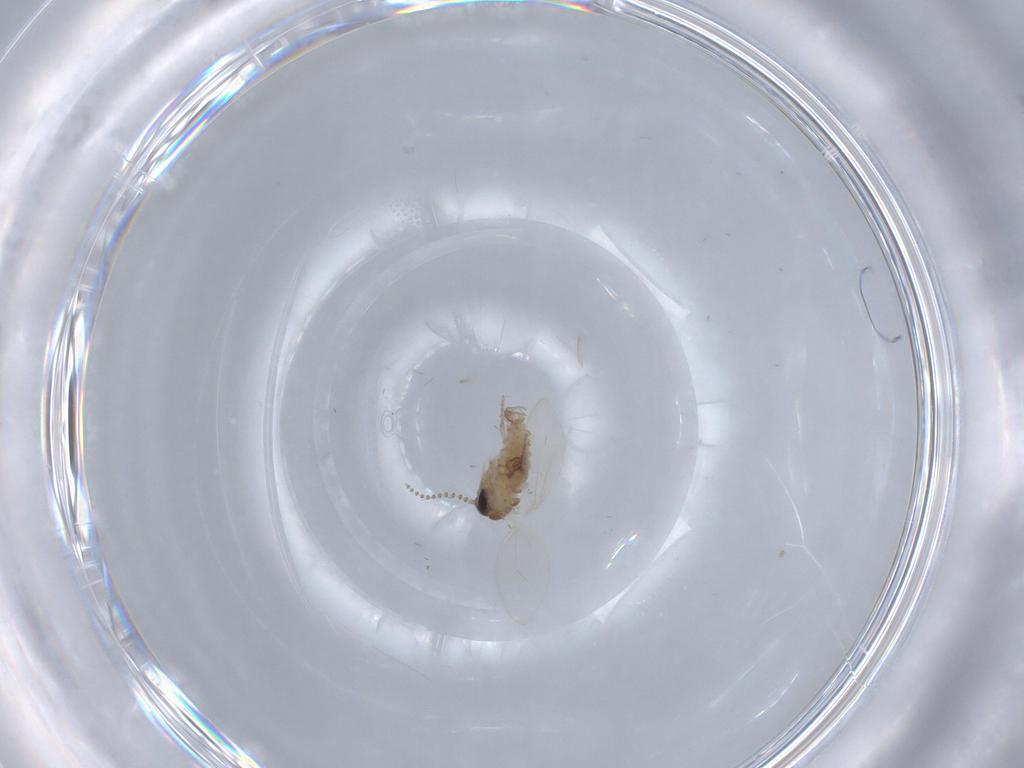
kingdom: Animalia
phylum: Arthropoda
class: Insecta
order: Diptera
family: Psychodidae
